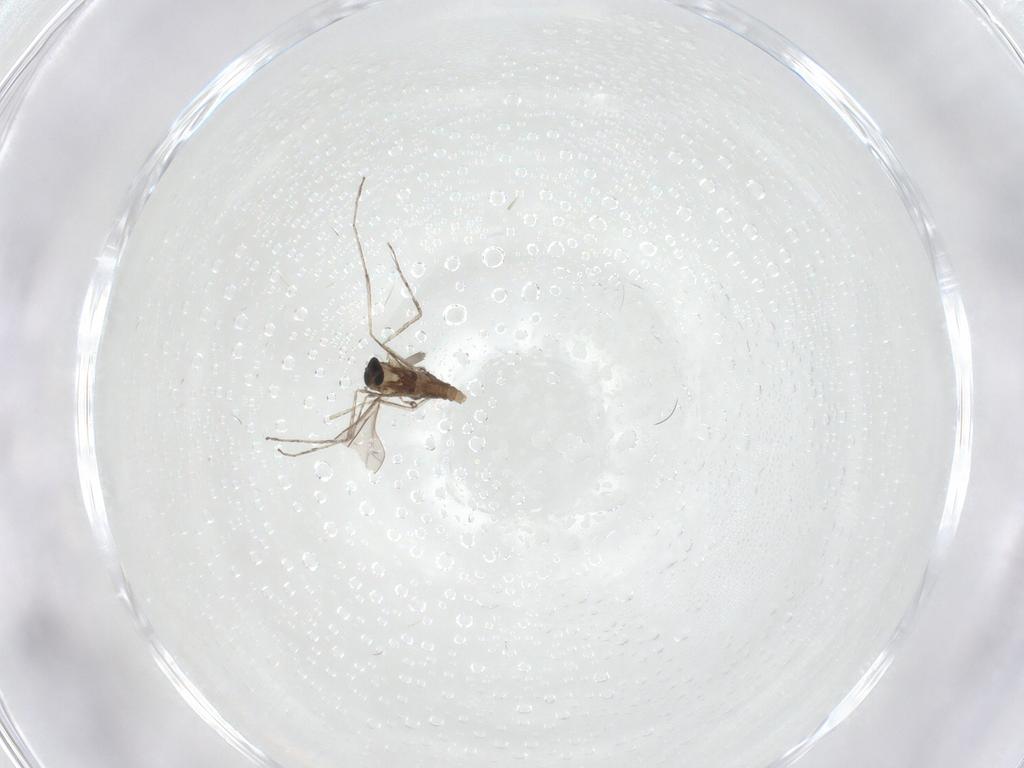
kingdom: Animalia
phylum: Arthropoda
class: Insecta
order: Diptera
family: Cecidomyiidae
